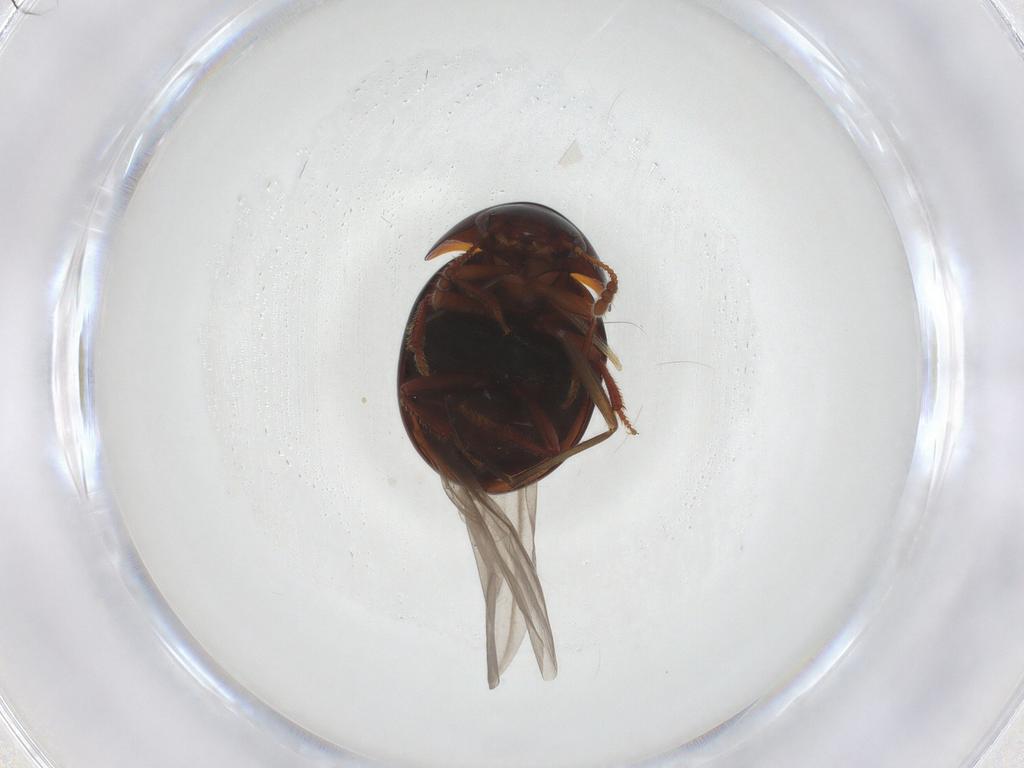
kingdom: Animalia
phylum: Arthropoda
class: Insecta
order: Coleoptera
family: Leiodidae
